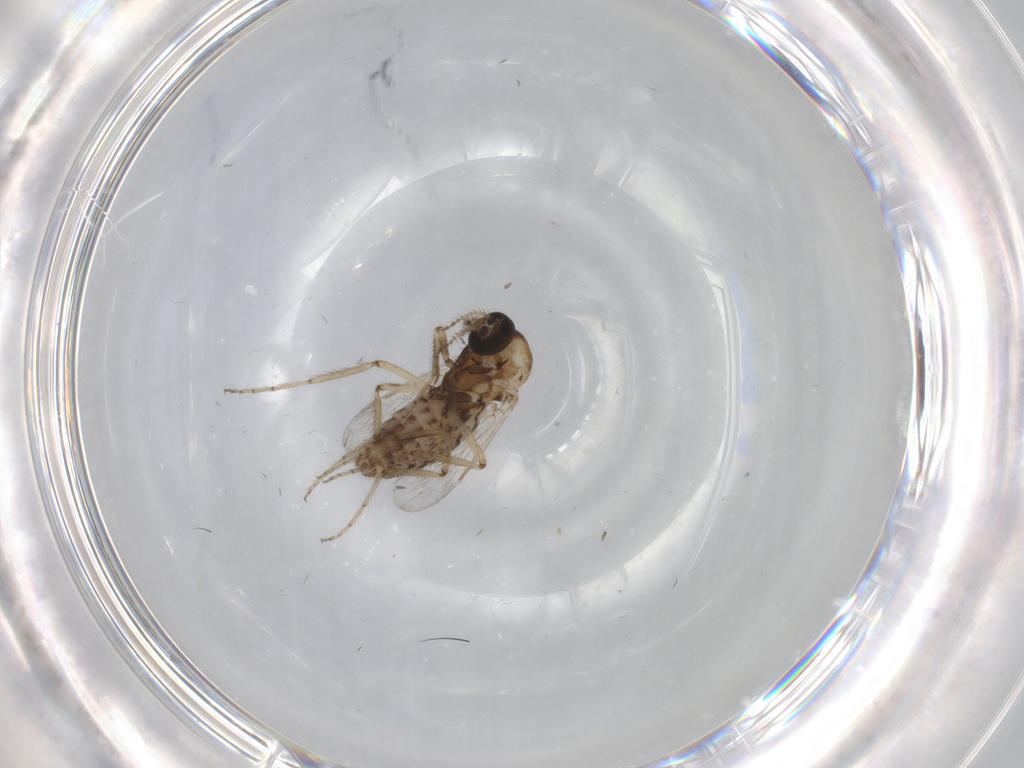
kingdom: Animalia
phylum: Arthropoda
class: Insecta
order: Diptera
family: Ceratopogonidae
